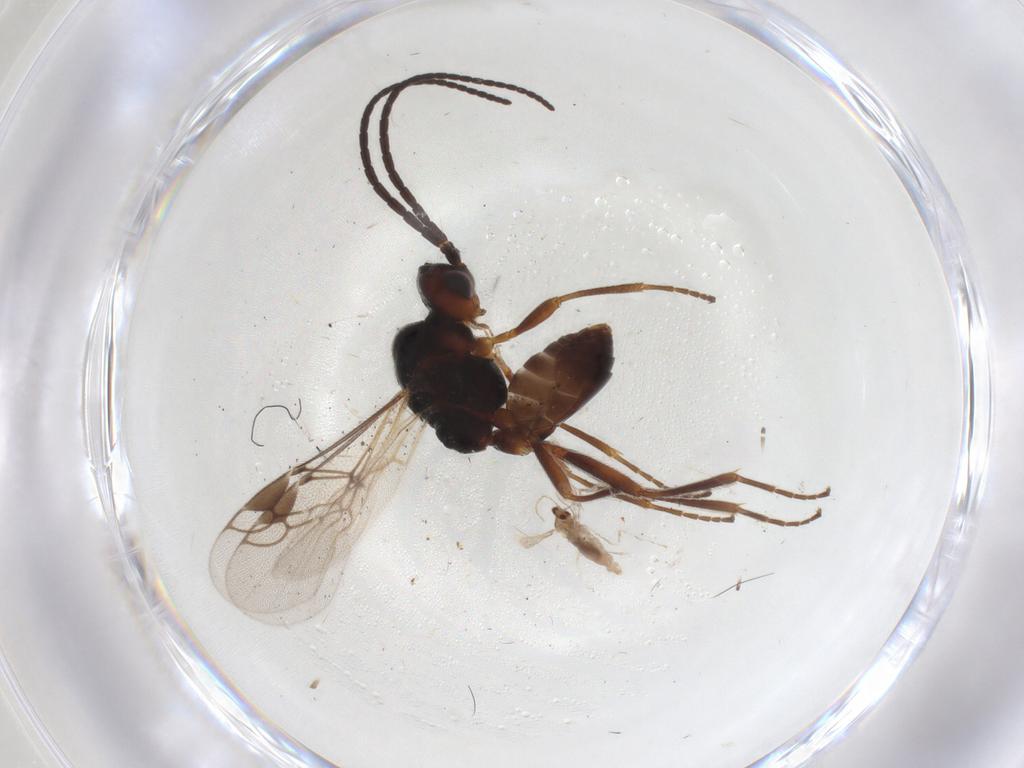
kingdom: Animalia
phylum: Arthropoda
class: Insecta
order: Hymenoptera
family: Braconidae
